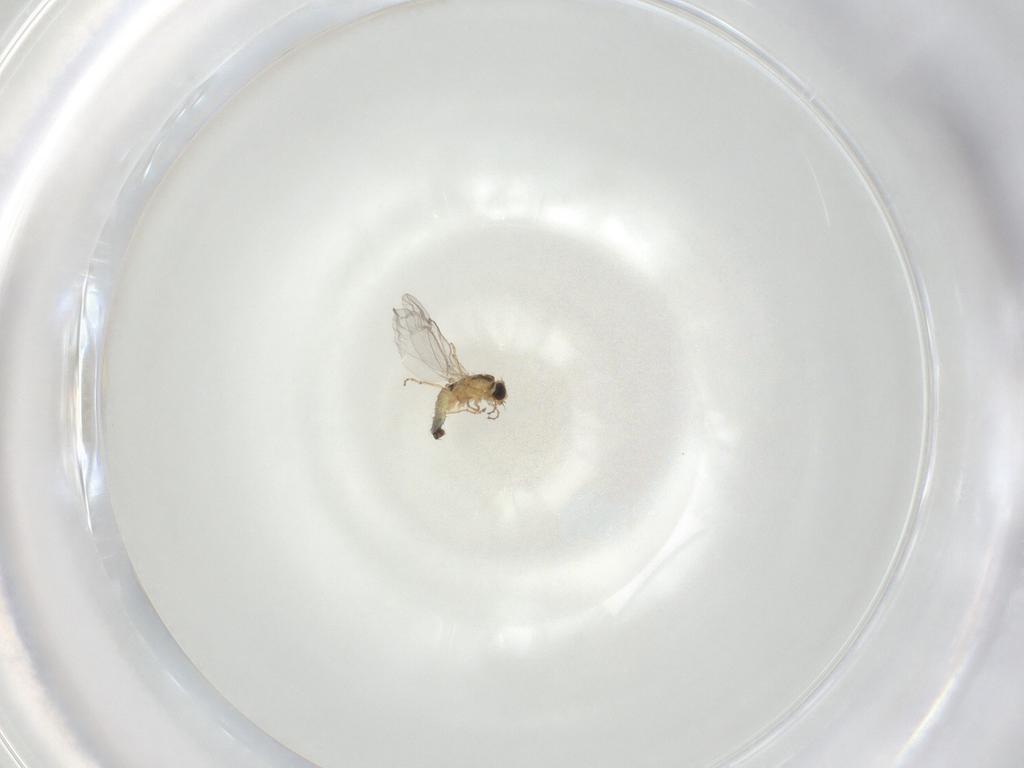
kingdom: Animalia
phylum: Arthropoda
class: Insecta
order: Diptera
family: Agromyzidae
